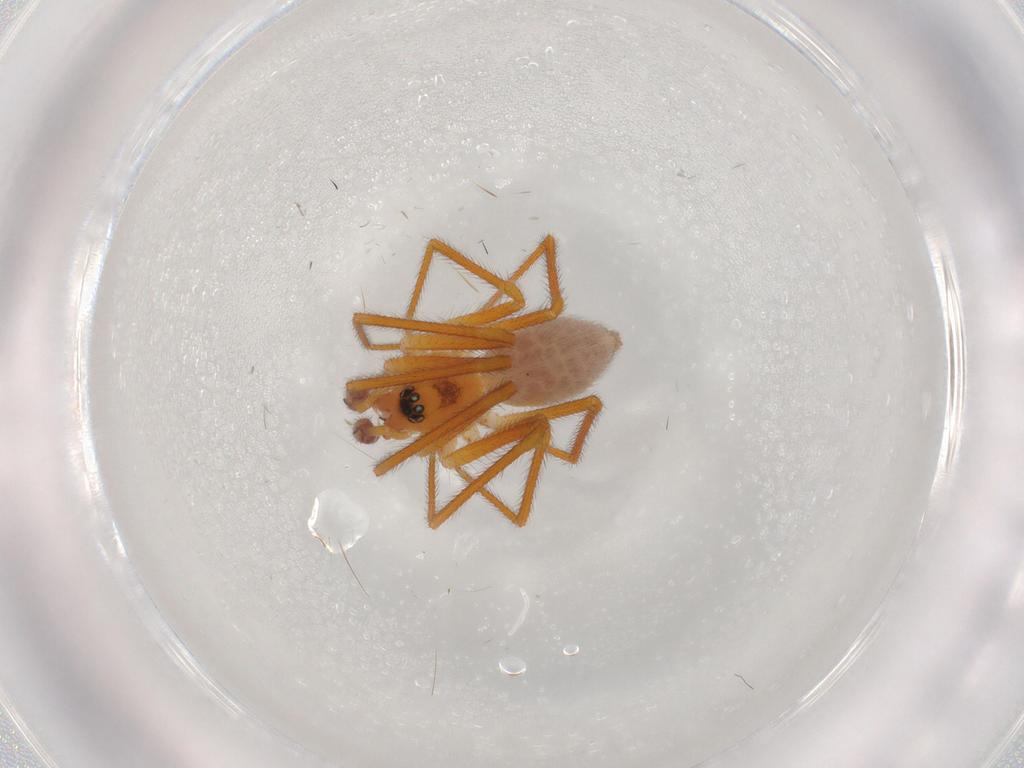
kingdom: Animalia
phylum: Arthropoda
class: Arachnida
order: Araneae
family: Linyphiidae
